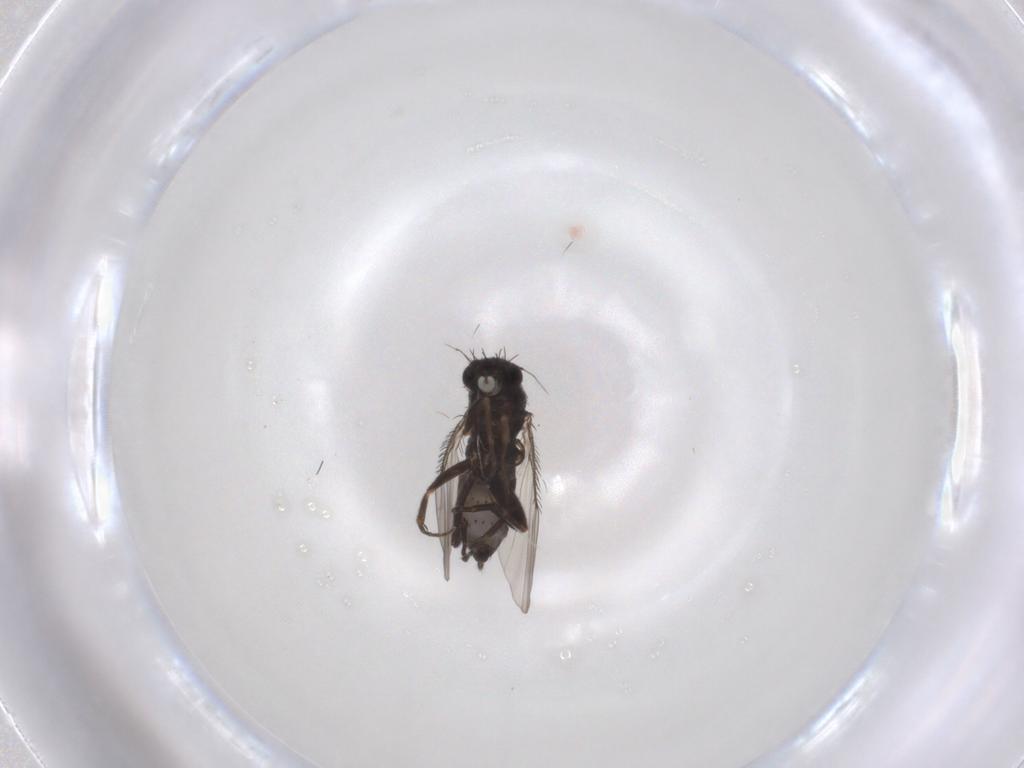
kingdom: Animalia
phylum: Arthropoda
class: Insecta
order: Diptera
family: Phoridae
